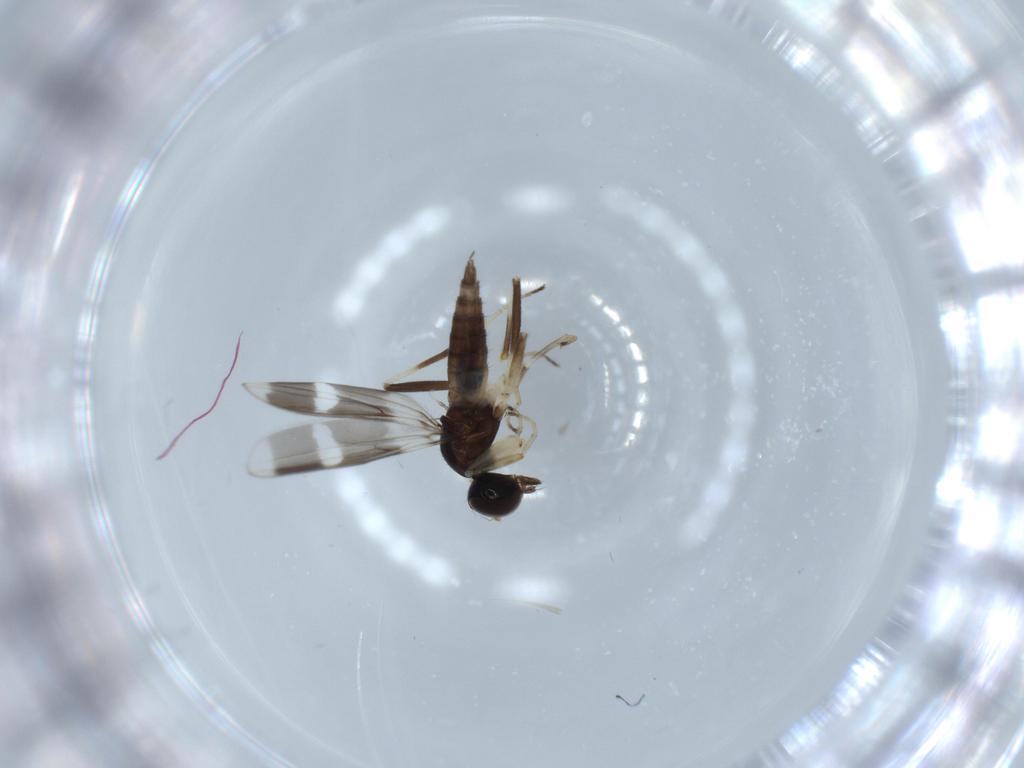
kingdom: Animalia
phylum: Arthropoda
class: Insecta
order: Diptera
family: Hybotidae
